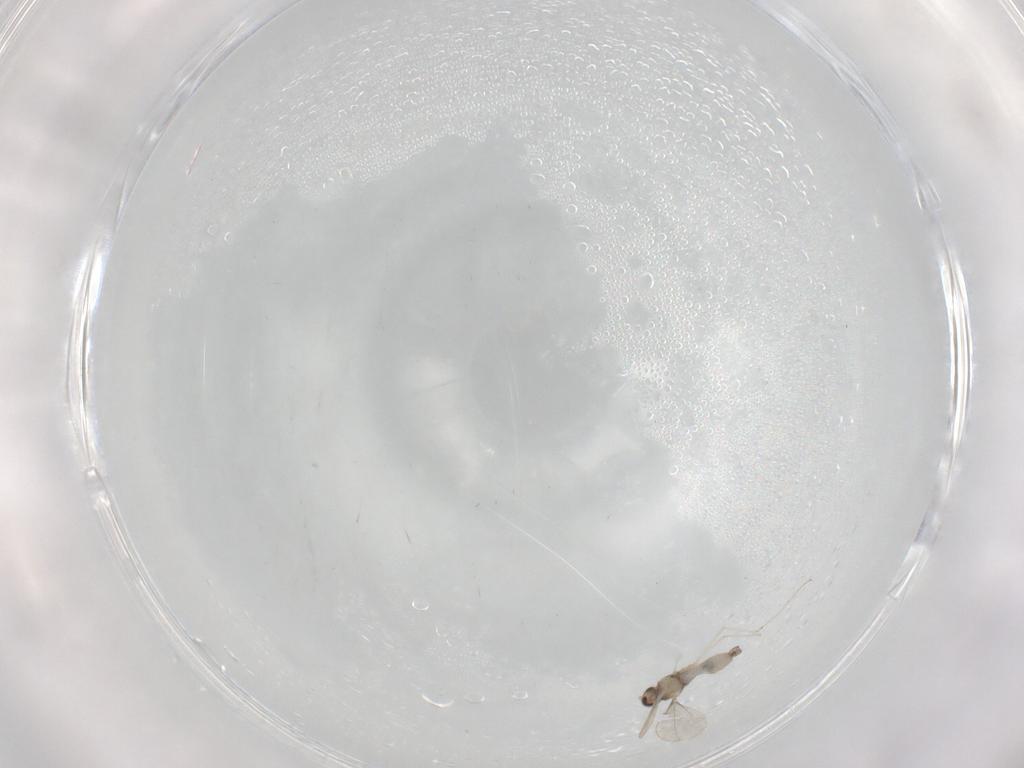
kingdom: Animalia
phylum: Arthropoda
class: Insecta
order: Diptera
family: Cecidomyiidae
